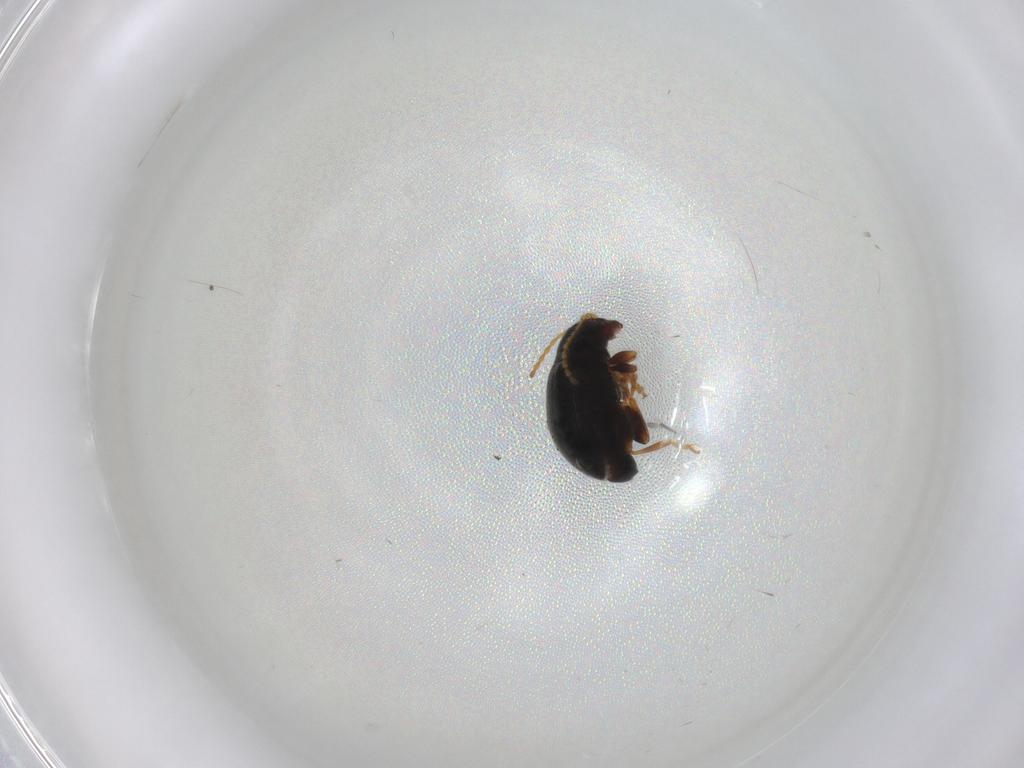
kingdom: Animalia
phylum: Arthropoda
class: Insecta
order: Coleoptera
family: Chrysomelidae
